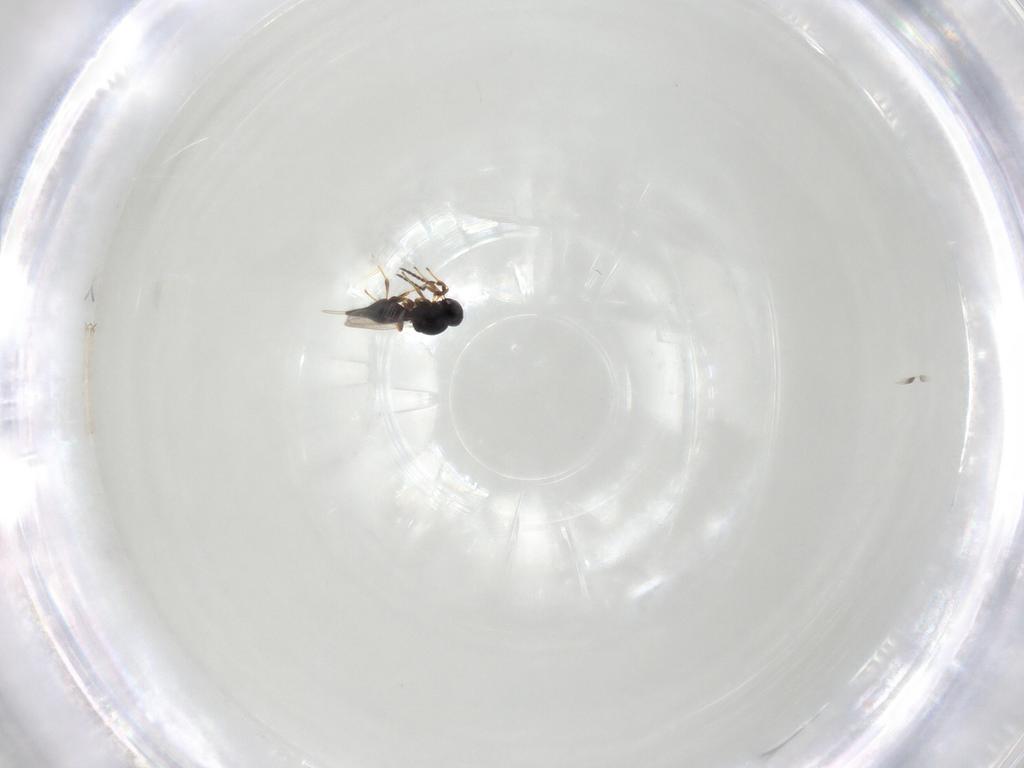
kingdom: Animalia
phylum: Arthropoda
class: Insecta
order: Hymenoptera
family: Platygastridae
